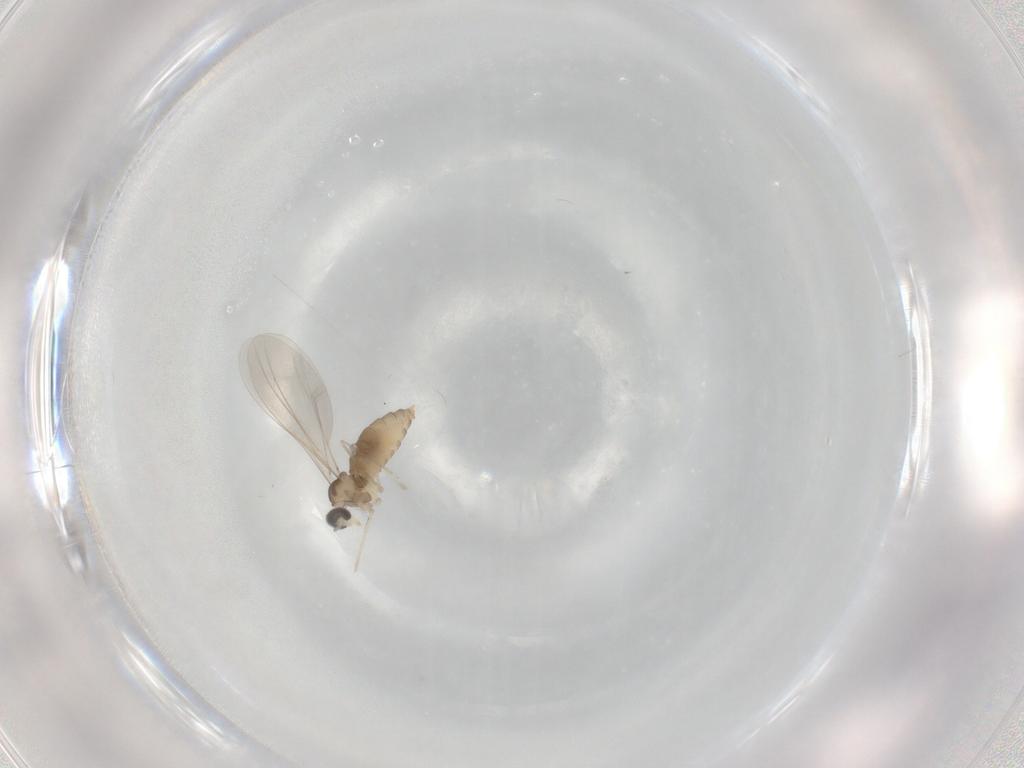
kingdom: Animalia
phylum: Arthropoda
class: Insecta
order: Diptera
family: Cecidomyiidae
